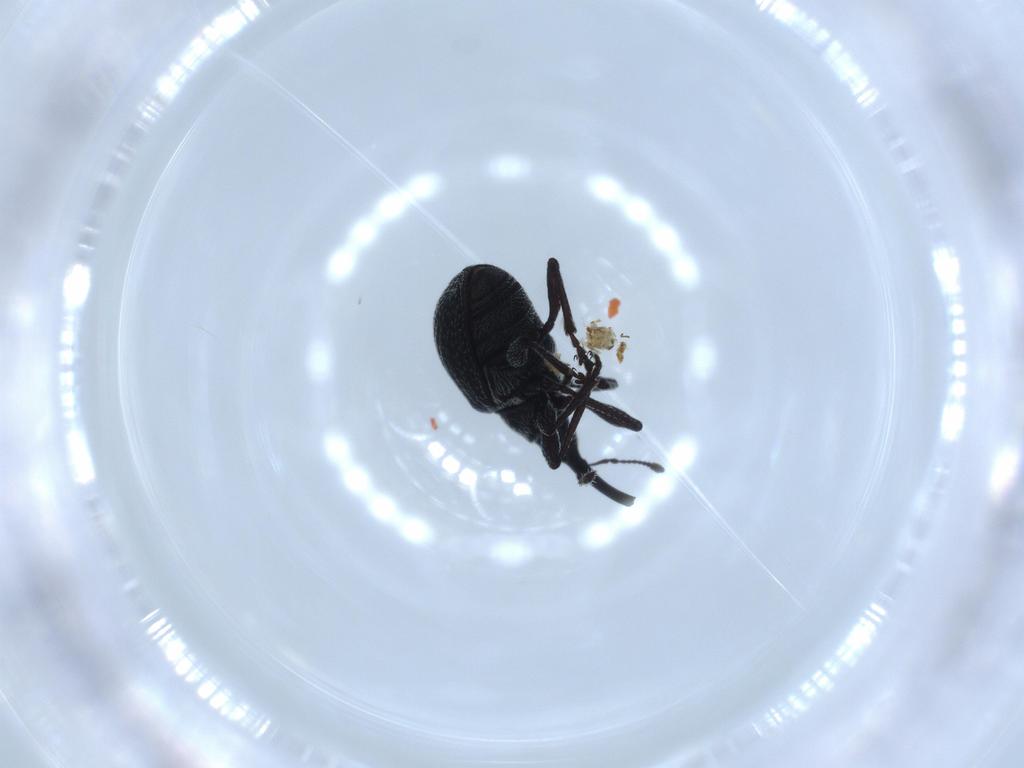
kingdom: Animalia
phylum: Arthropoda
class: Insecta
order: Coleoptera
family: Brentidae
